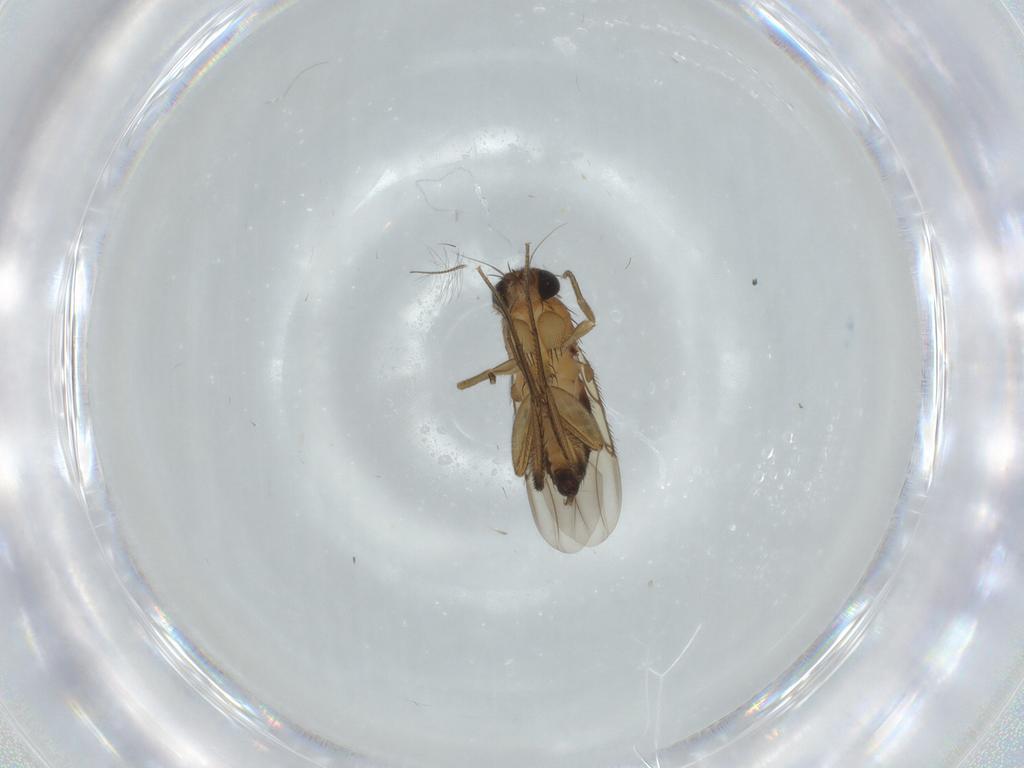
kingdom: Animalia
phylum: Arthropoda
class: Insecta
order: Diptera
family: Phoridae
